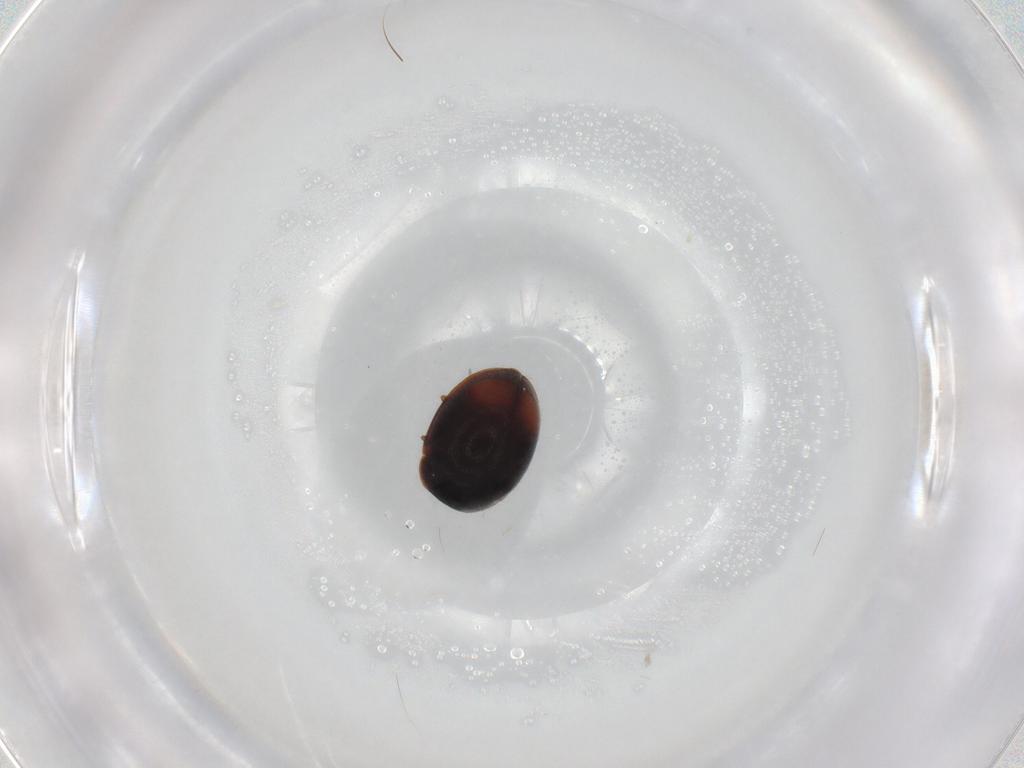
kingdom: Animalia
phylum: Arthropoda
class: Insecta
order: Coleoptera
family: Coccinellidae
